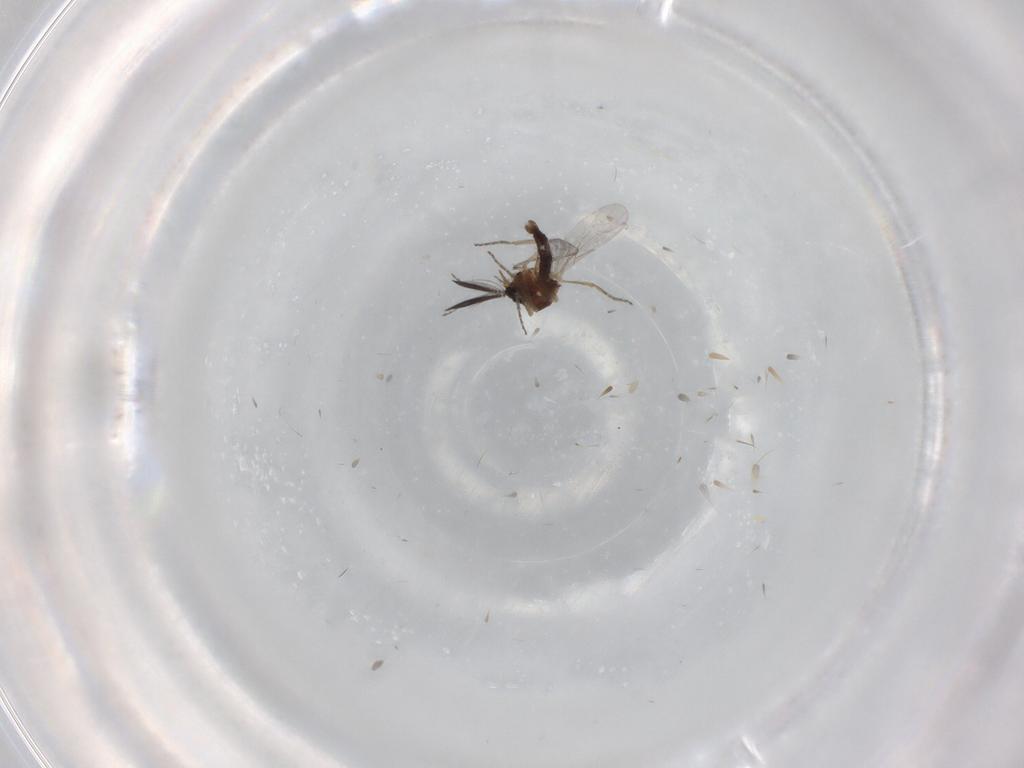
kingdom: Animalia
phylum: Arthropoda
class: Insecta
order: Diptera
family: Ceratopogonidae
